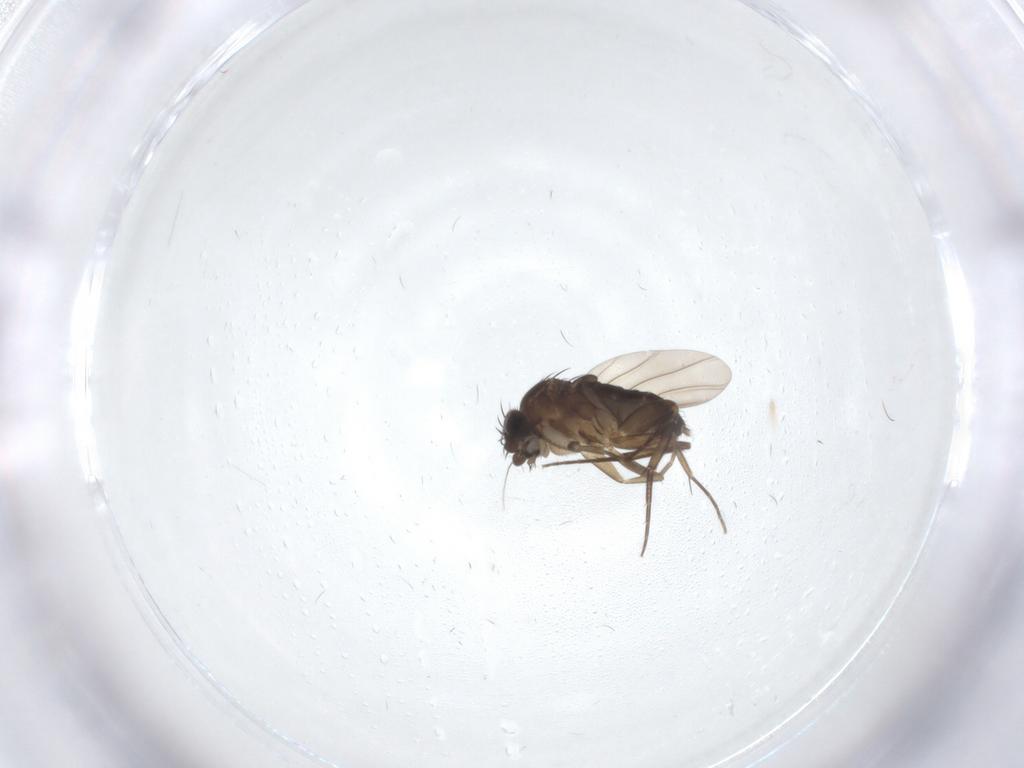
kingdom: Animalia
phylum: Arthropoda
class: Insecta
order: Diptera
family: Phoridae
